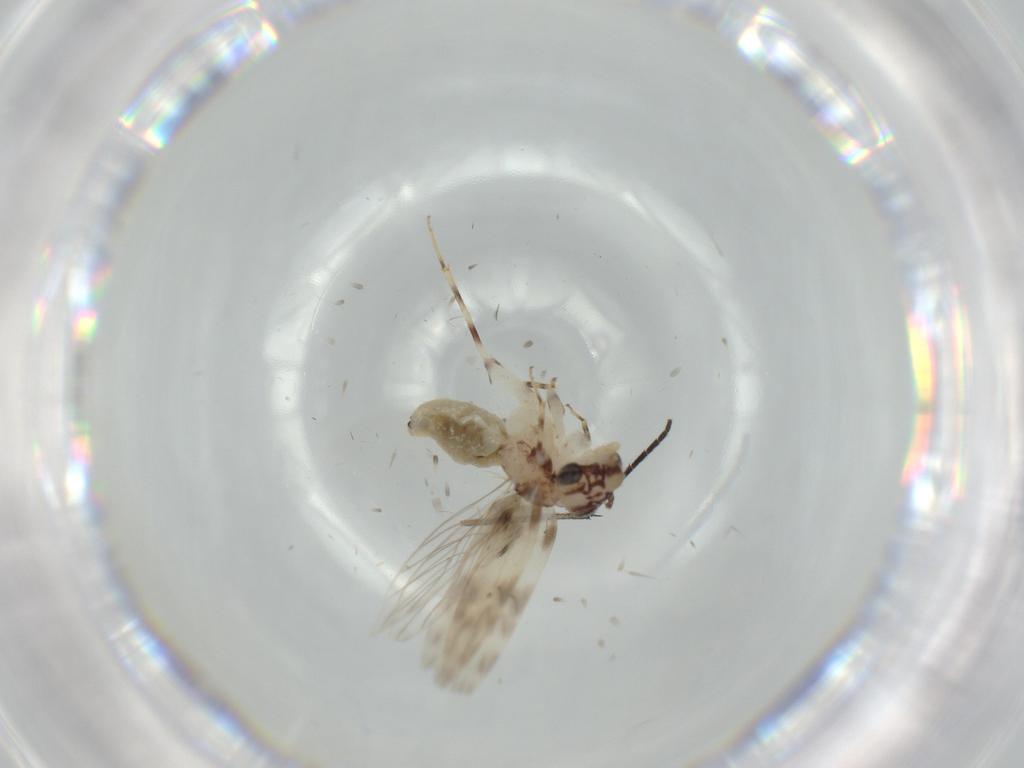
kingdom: Animalia
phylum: Arthropoda
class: Insecta
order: Psocodea
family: Lepidopsocidae
